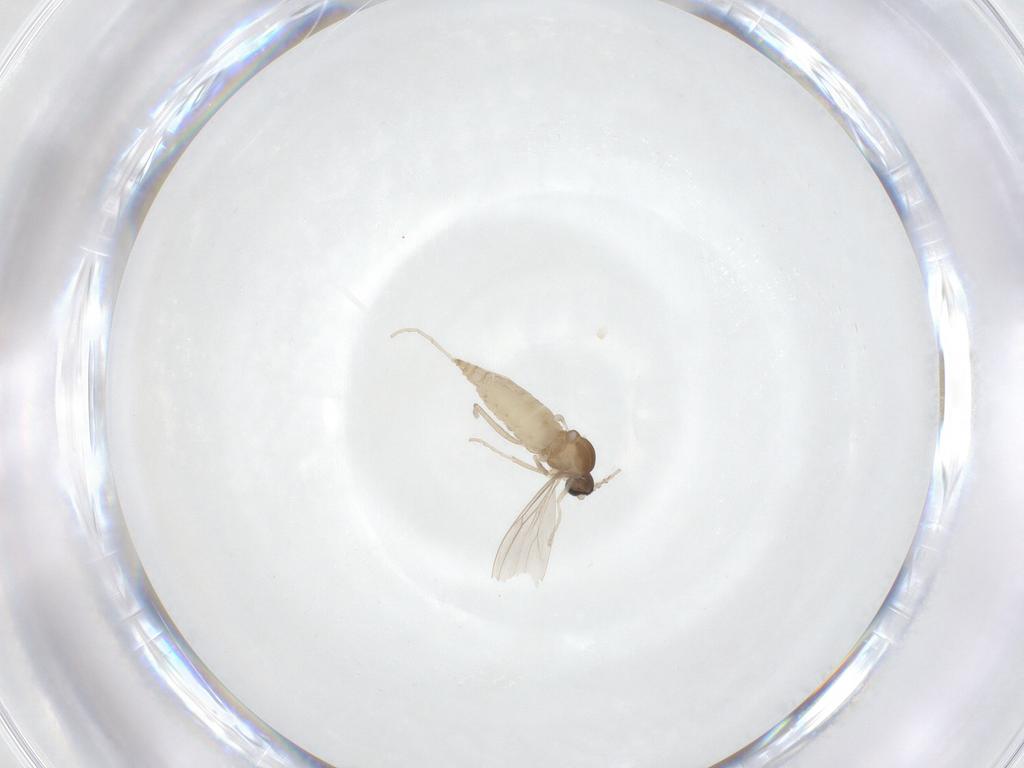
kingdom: Animalia
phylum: Arthropoda
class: Insecta
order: Diptera
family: Cecidomyiidae
